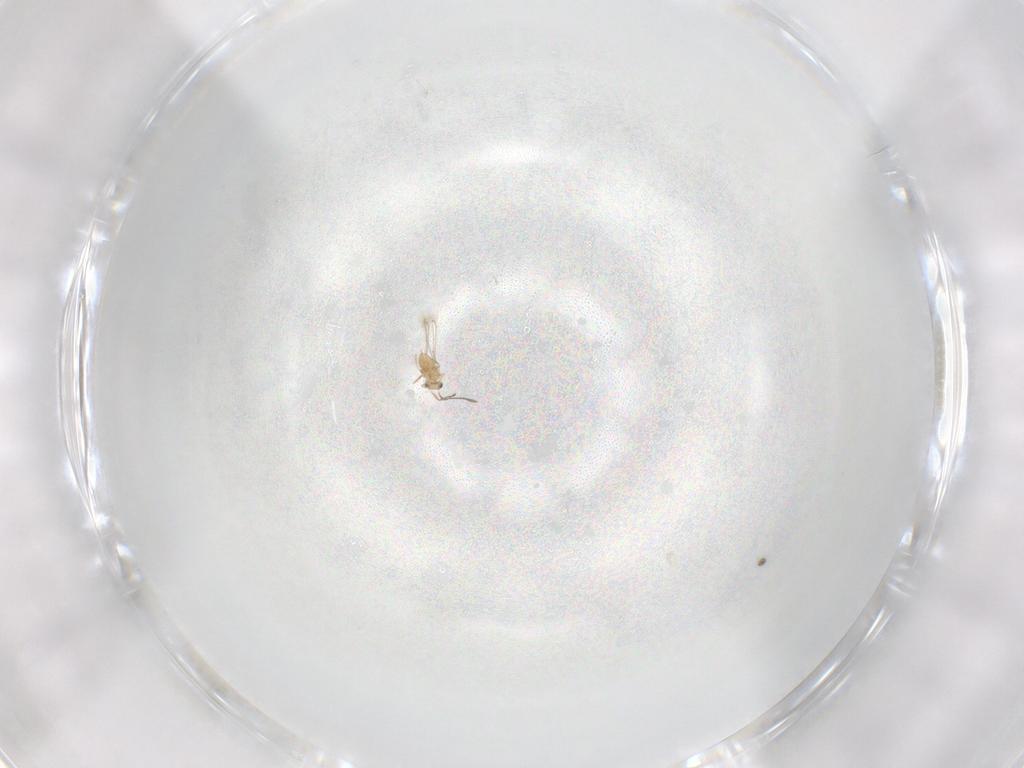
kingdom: Animalia
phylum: Arthropoda
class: Insecta
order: Hymenoptera
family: Mymaridae
